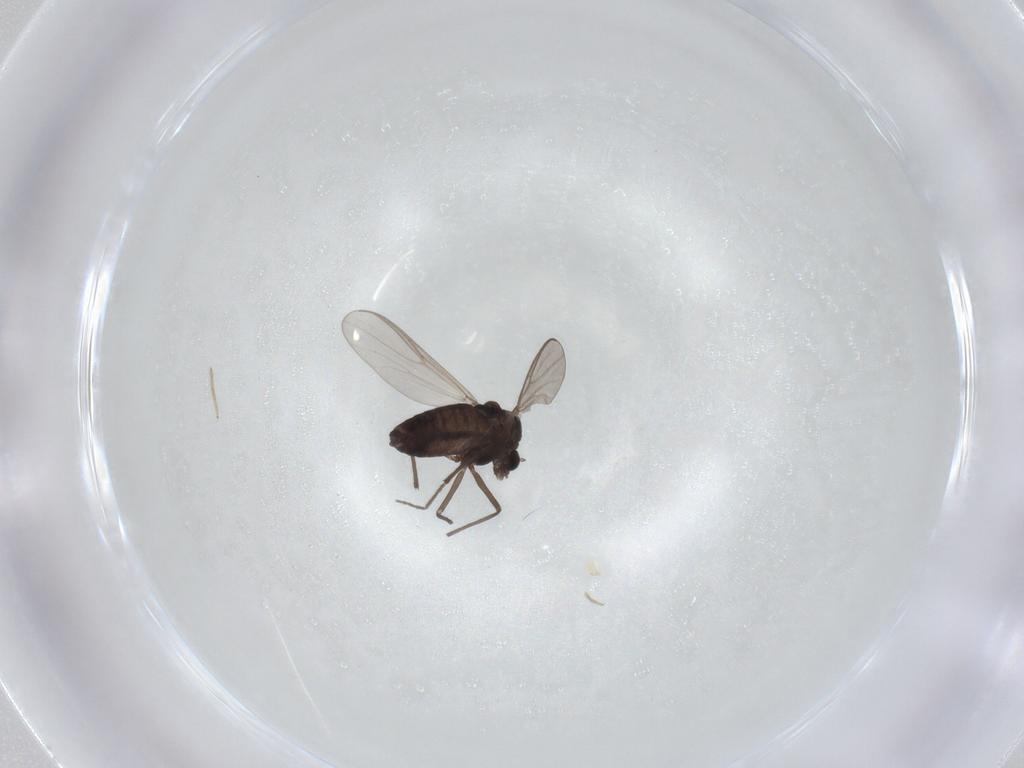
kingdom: Animalia
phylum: Arthropoda
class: Insecta
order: Diptera
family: Chironomidae
